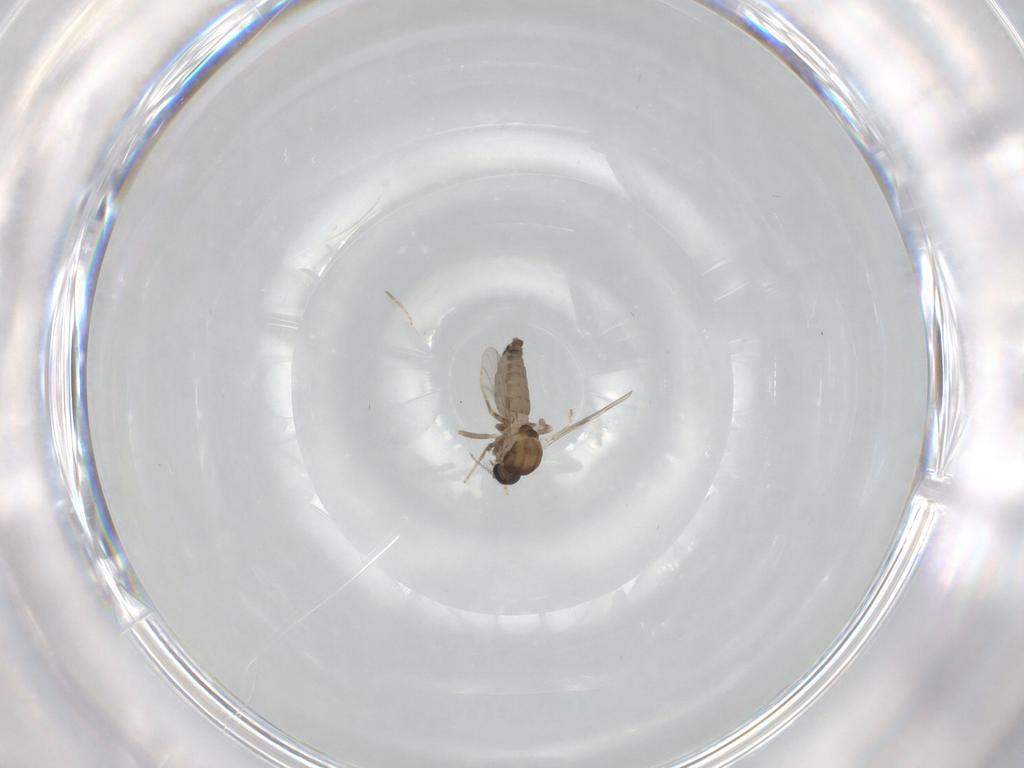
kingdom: Animalia
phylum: Arthropoda
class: Insecta
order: Diptera
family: Ceratopogonidae
